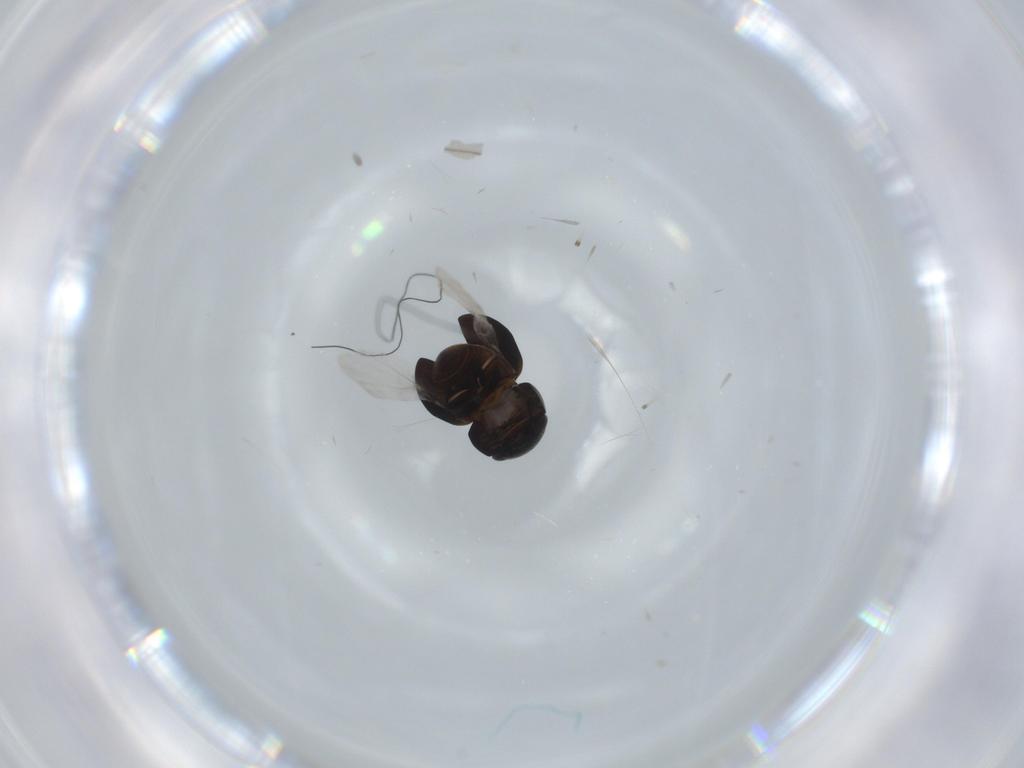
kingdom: Animalia
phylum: Arthropoda
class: Insecta
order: Coleoptera
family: Cybocephalidae
